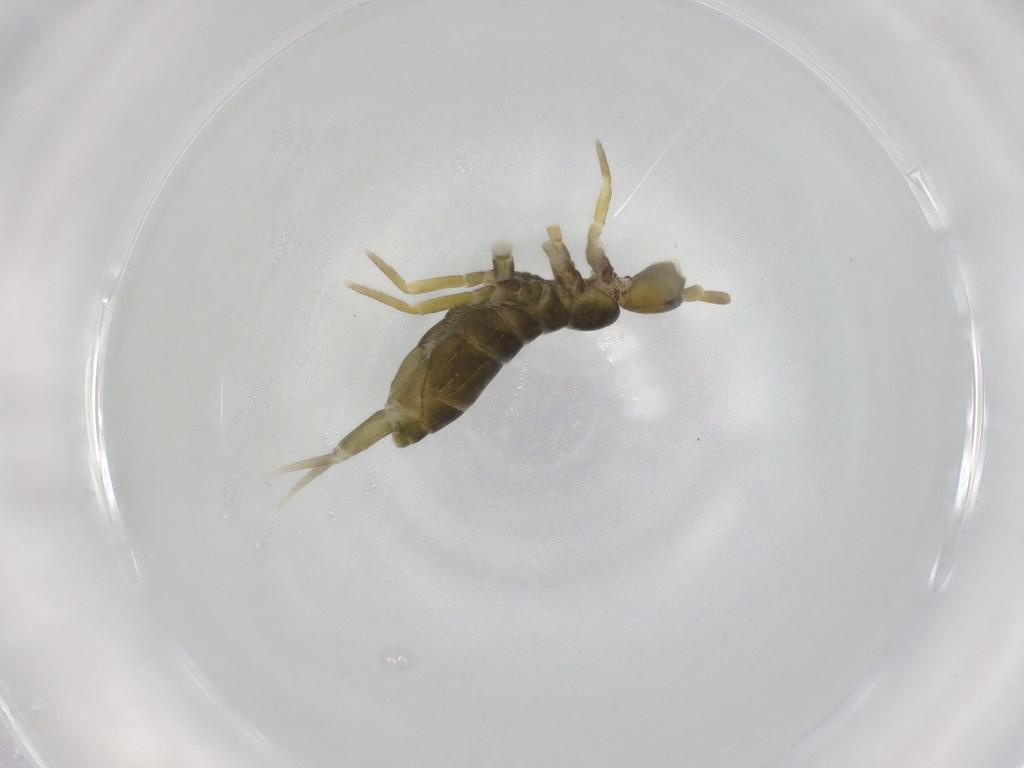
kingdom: Animalia
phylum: Arthropoda
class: Collembola
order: Entomobryomorpha
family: Tomoceridae
